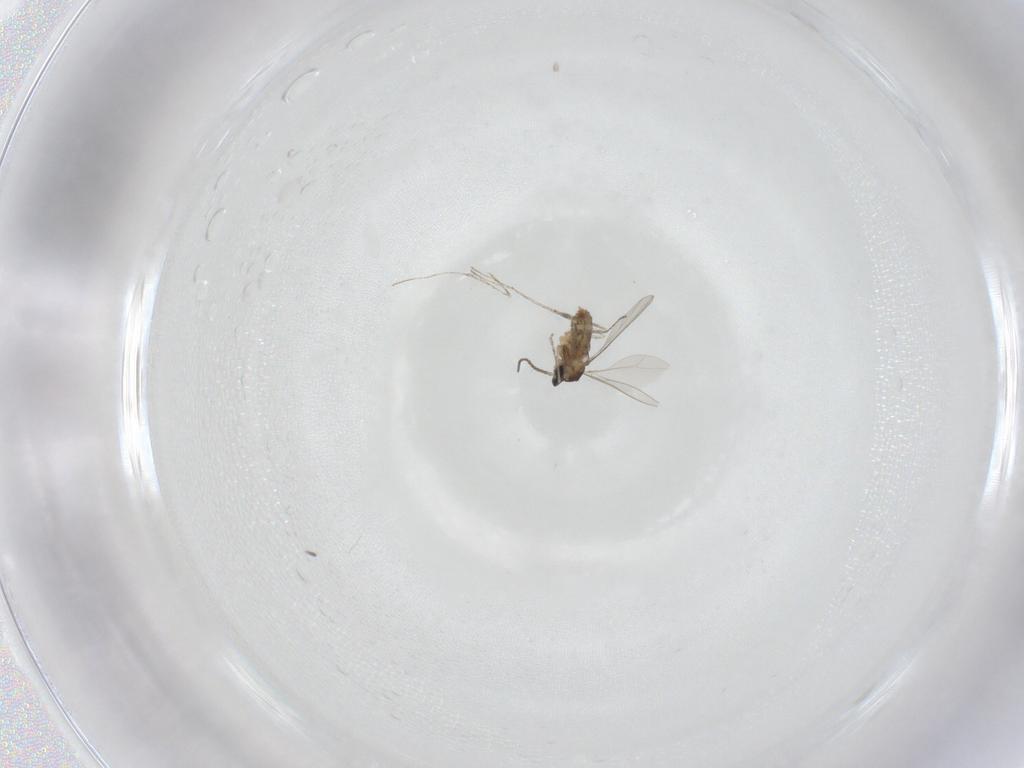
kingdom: Animalia
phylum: Arthropoda
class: Insecta
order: Diptera
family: Cecidomyiidae
